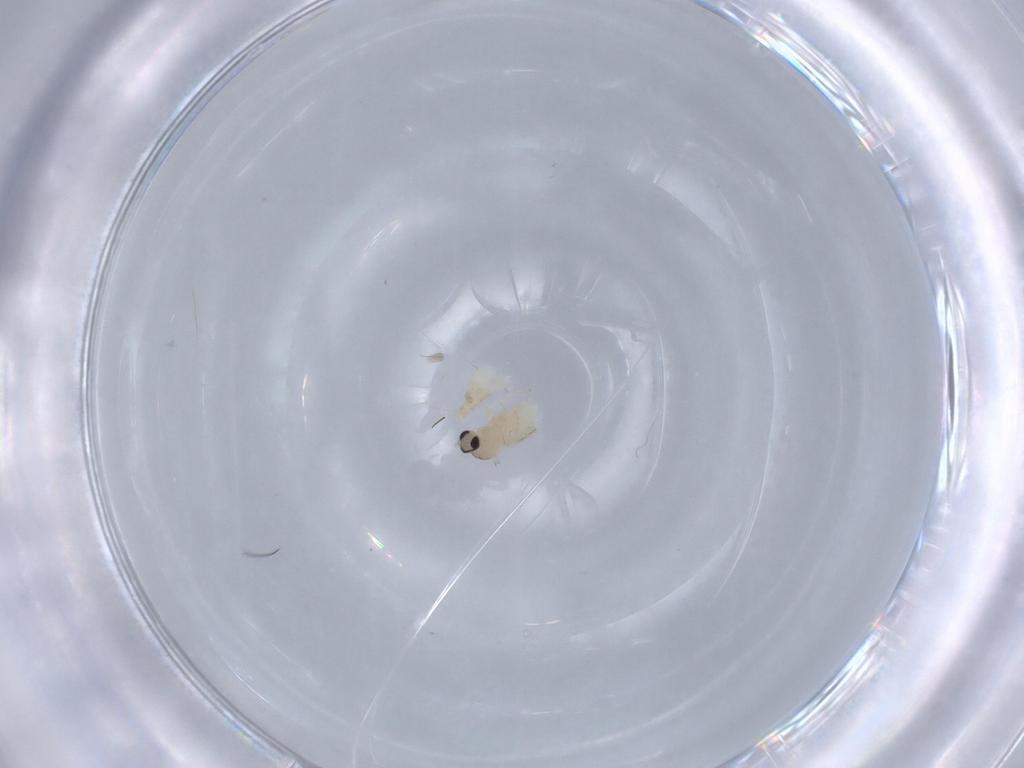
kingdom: Animalia
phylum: Arthropoda
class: Insecta
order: Diptera
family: Cecidomyiidae
